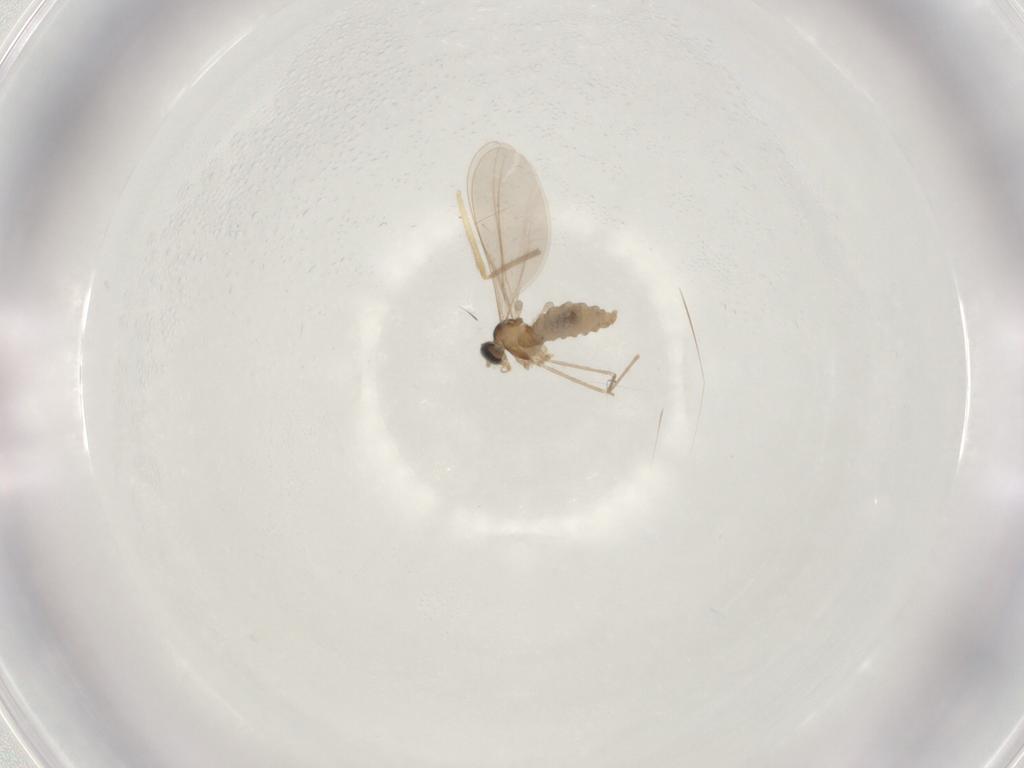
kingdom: Animalia
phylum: Arthropoda
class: Insecta
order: Diptera
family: Cecidomyiidae
